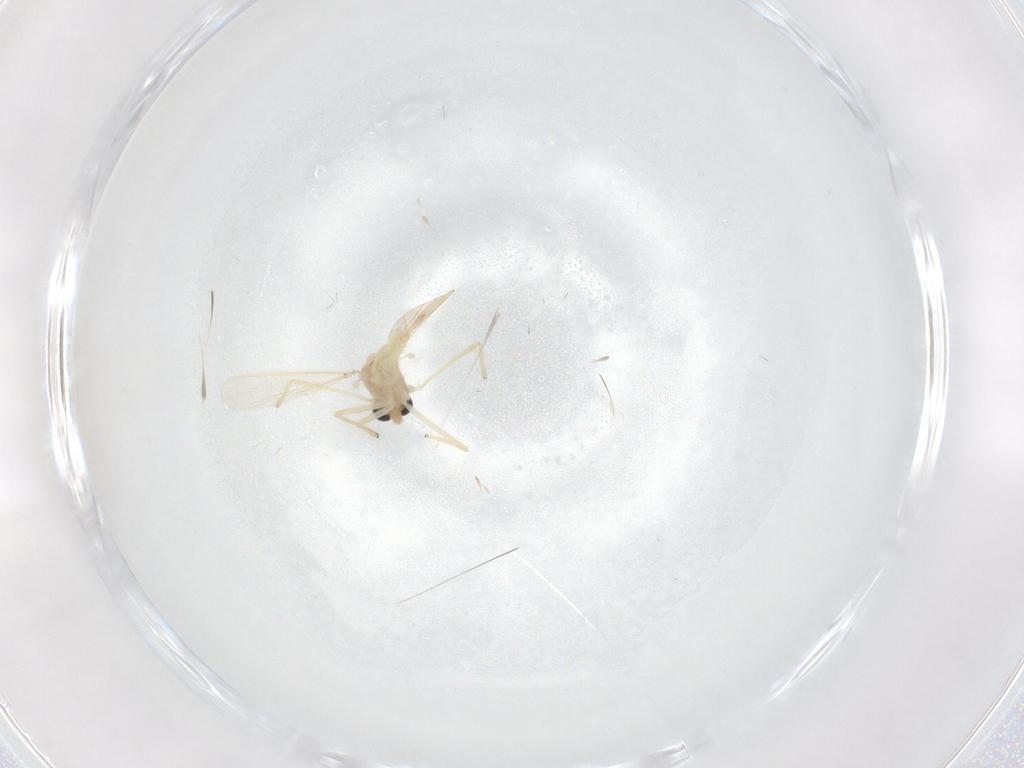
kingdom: Animalia
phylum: Arthropoda
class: Insecta
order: Diptera
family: Chironomidae
